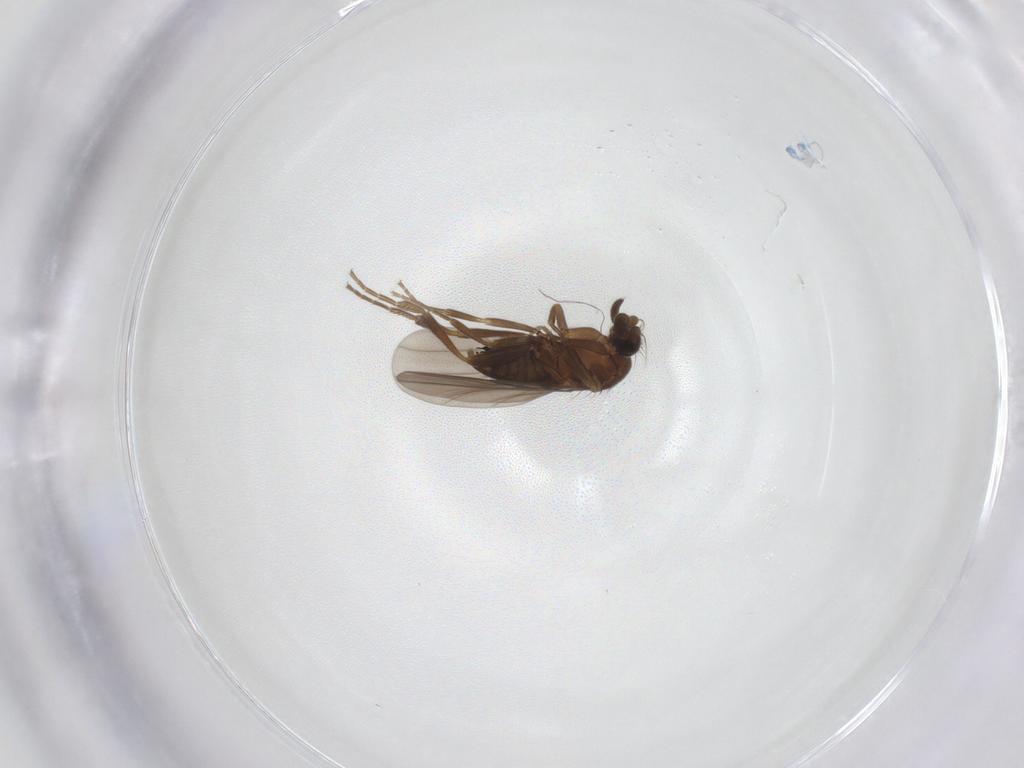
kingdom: Animalia
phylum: Arthropoda
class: Insecta
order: Diptera
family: Phoridae
